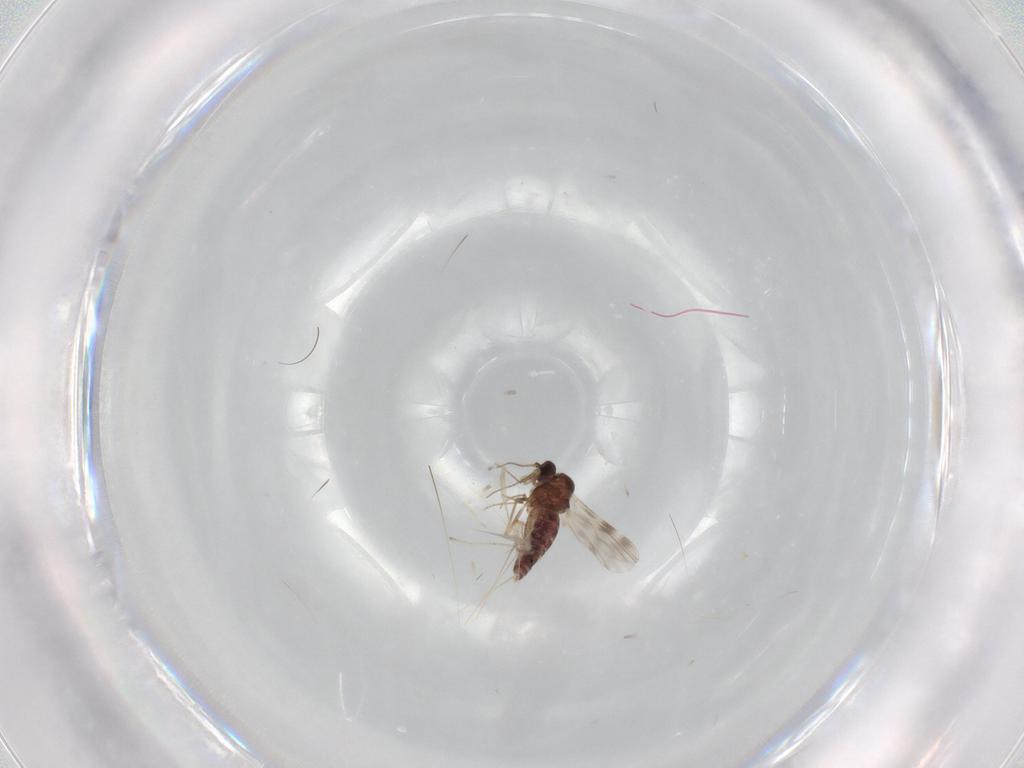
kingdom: Animalia
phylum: Arthropoda
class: Insecta
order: Diptera
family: Ceratopogonidae
